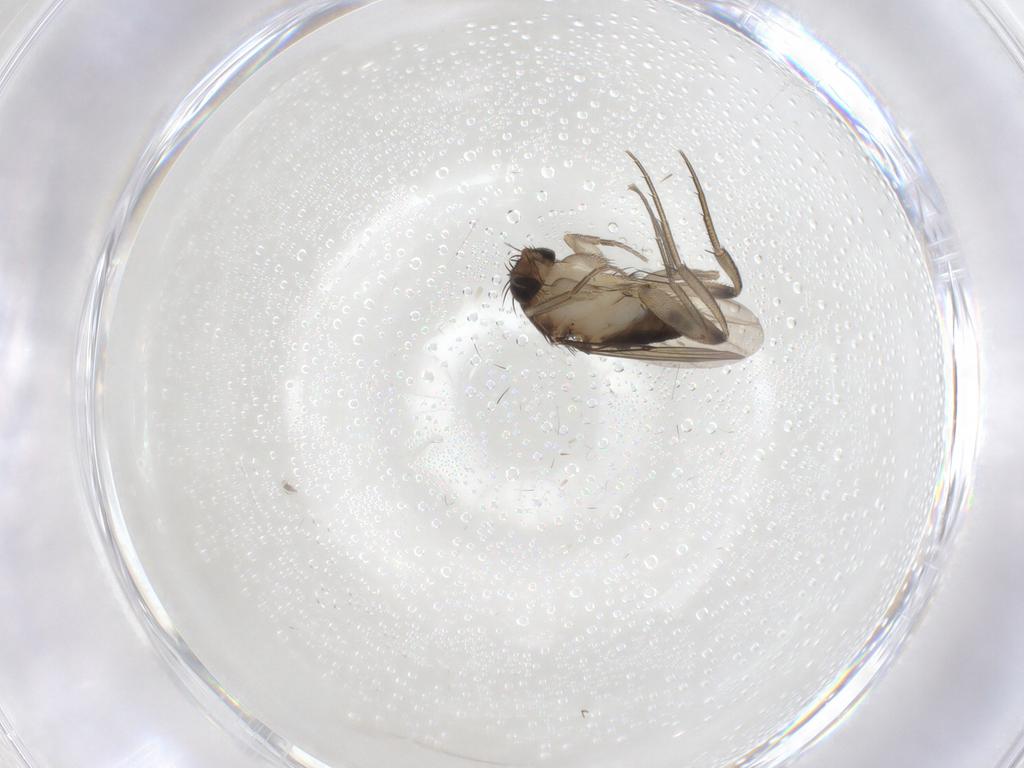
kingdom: Animalia
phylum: Arthropoda
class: Insecta
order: Diptera
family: Phoridae
